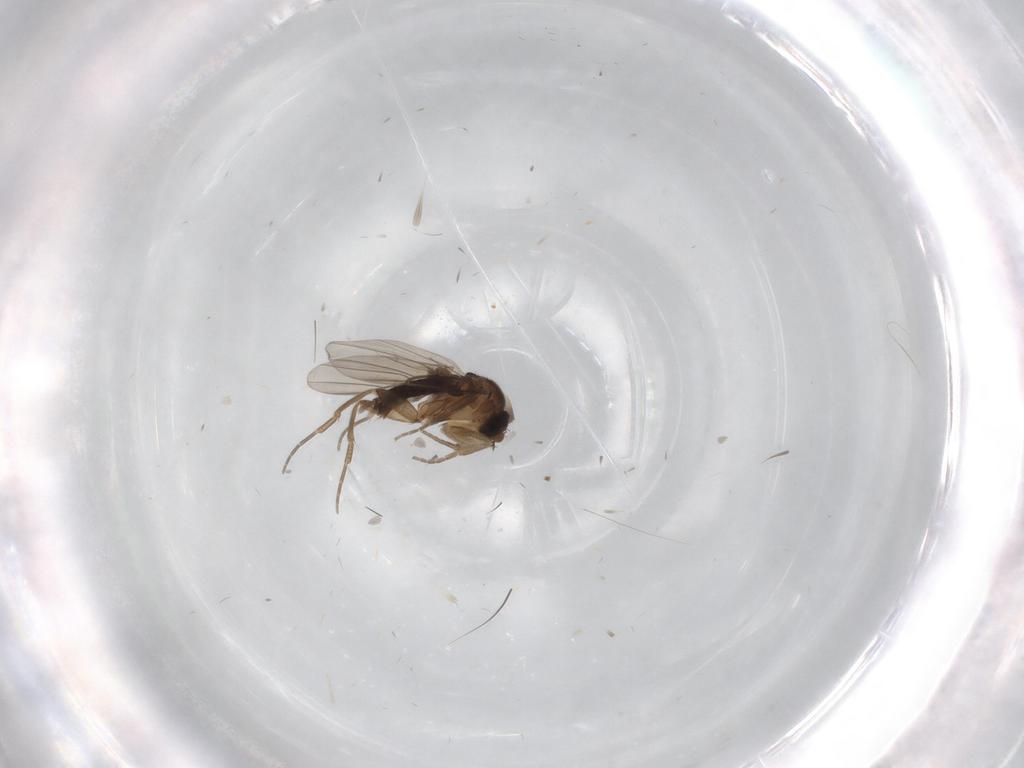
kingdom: Animalia
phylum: Arthropoda
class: Insecta
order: Diptera
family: Phoridae
